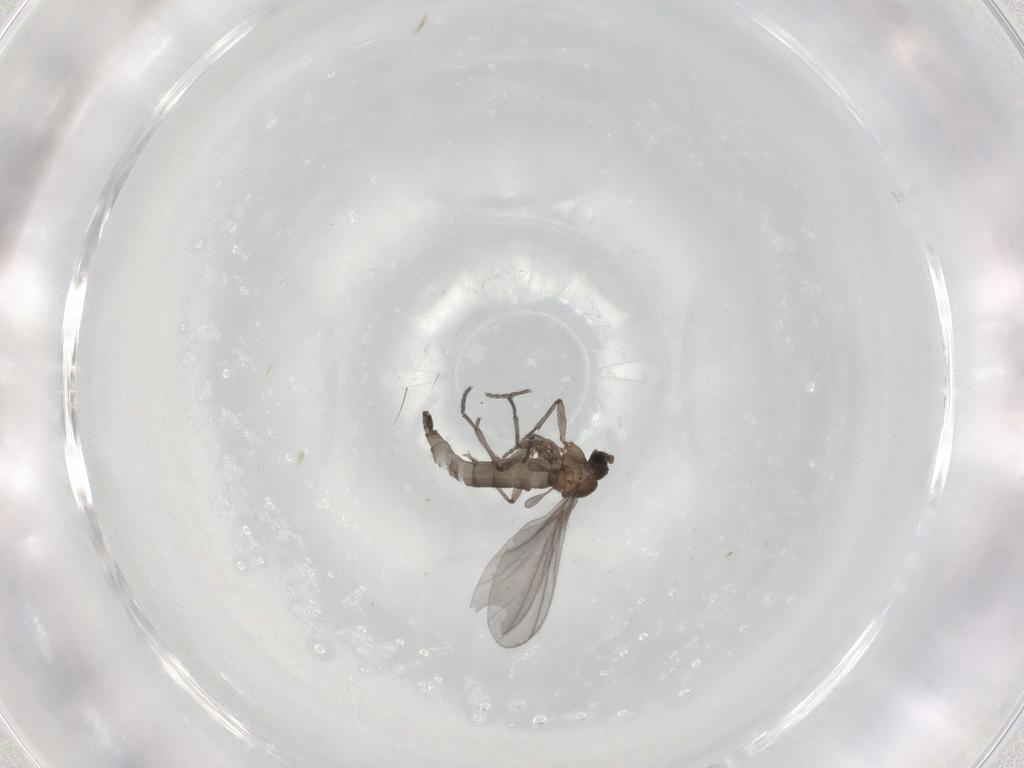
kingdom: Animalia
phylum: Arthropoda
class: Insecta
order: Diptera
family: Sciaridae
